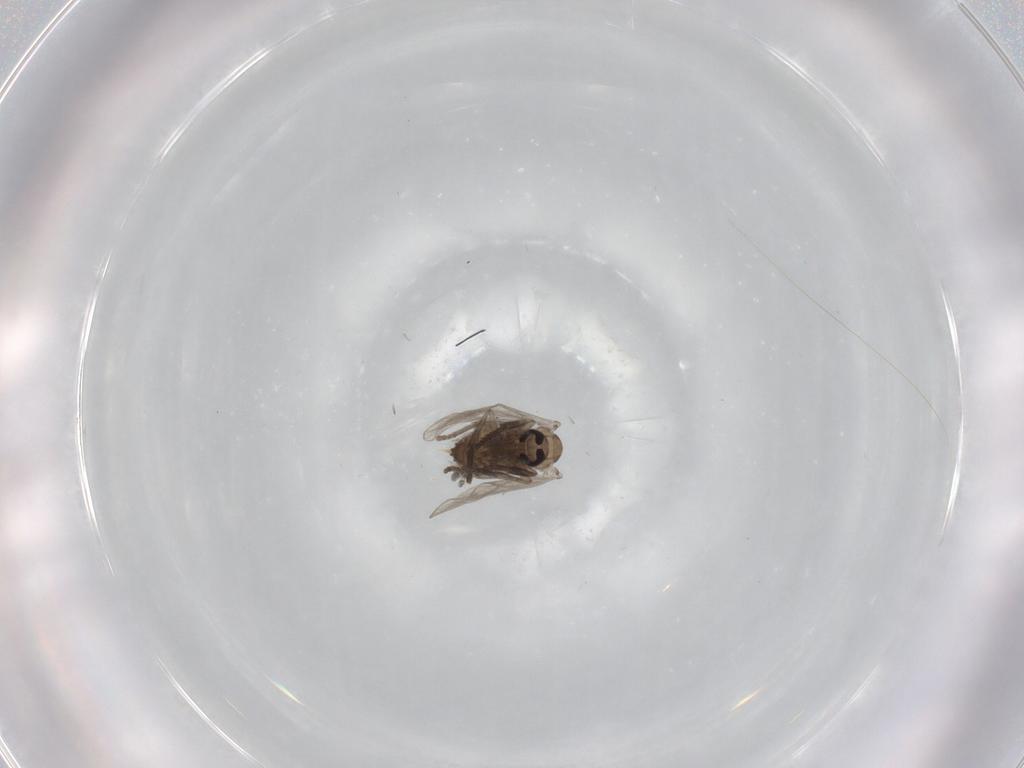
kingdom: Animalia
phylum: Arthropoda
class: Insecta
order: Diptera
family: Psychodidae
